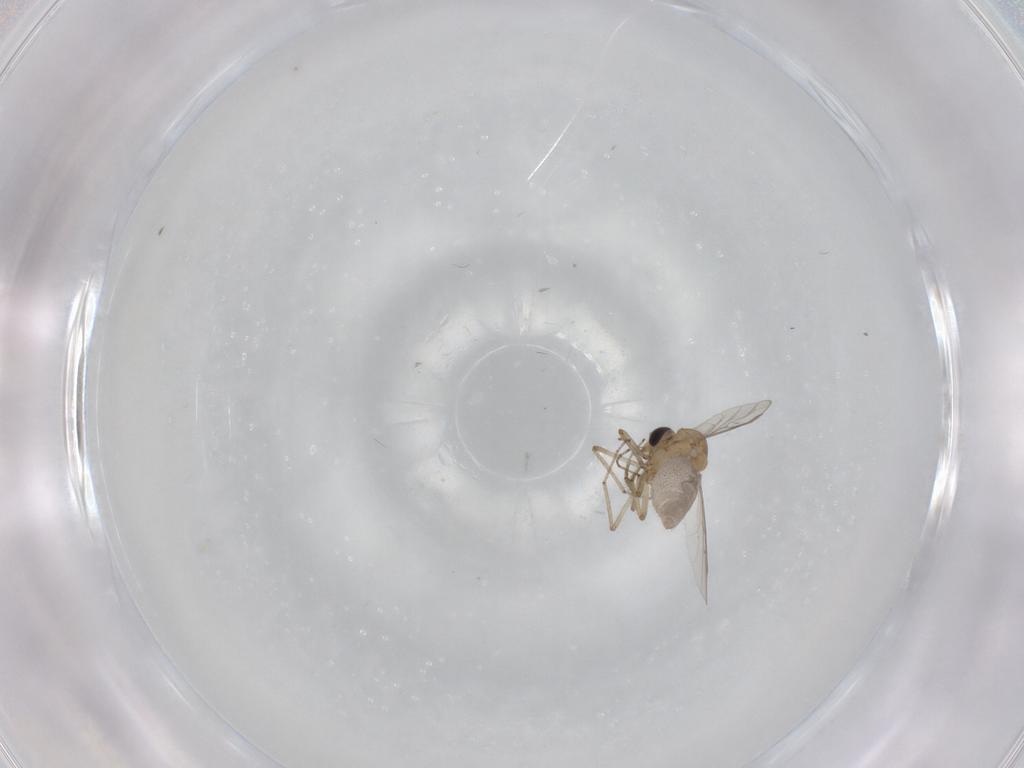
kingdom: Animalia
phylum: Arthropoda
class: Insecta
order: Diptera
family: Ceratopogonidae
